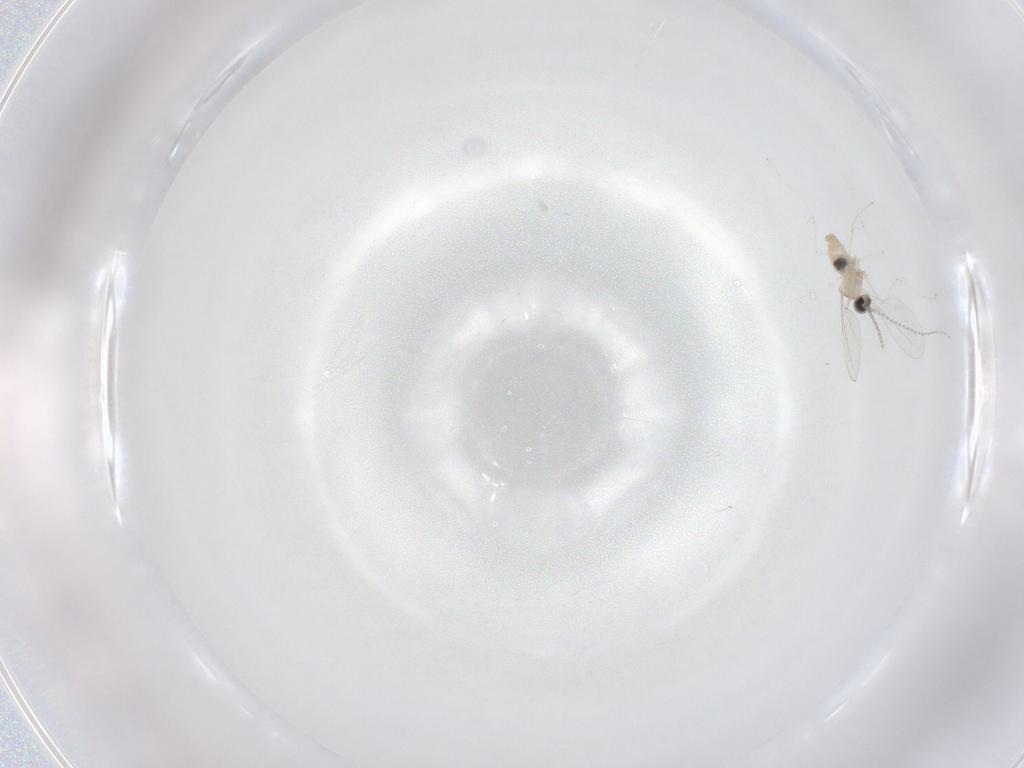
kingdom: Animalia
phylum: Arthropoda
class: Insecta
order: Diptera
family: Cecidomyiidae
